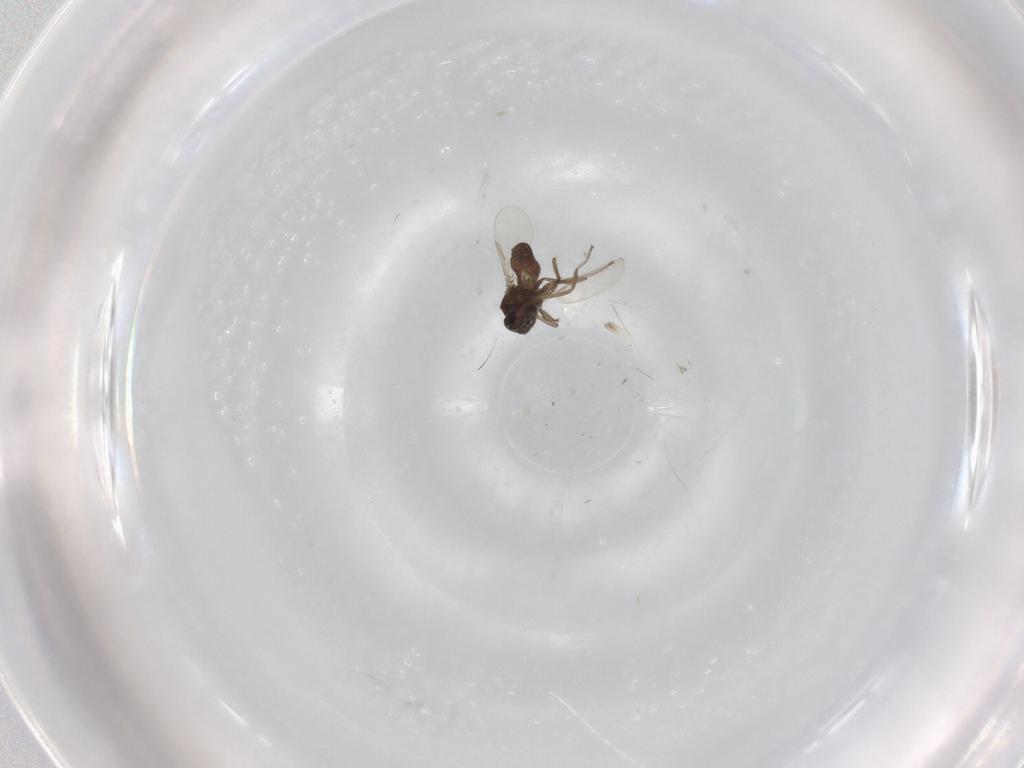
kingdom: Animalia
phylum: Arthropoda
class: Insecta
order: Diptera
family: Ceratopogonidae
